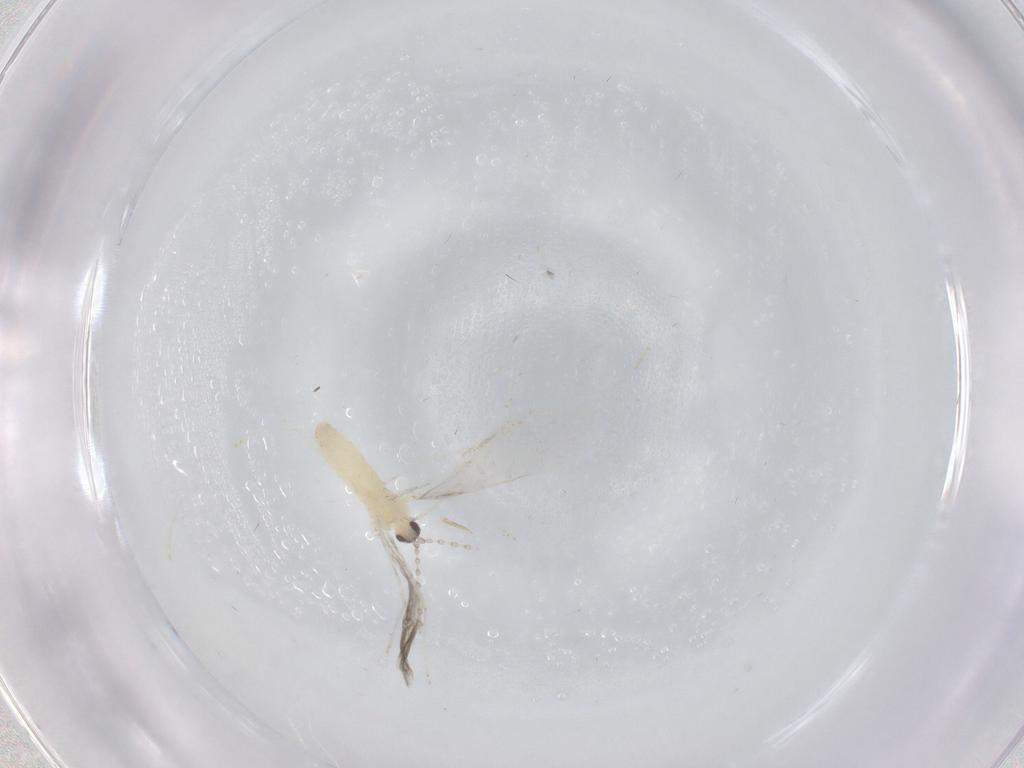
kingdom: Animalia
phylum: Arthropoda
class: Insecta
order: Diptera
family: Cecidomyiidae
